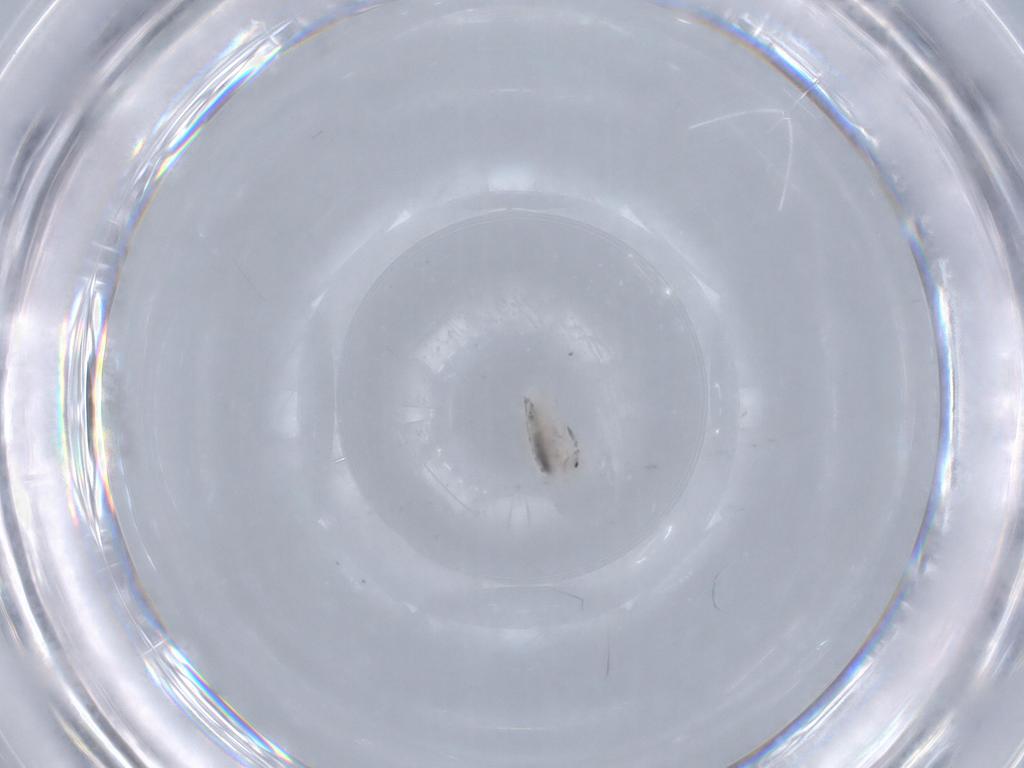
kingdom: Animalia
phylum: Arthropoda
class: Collembola
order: Entomobryomorpha
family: Entomobryidae
